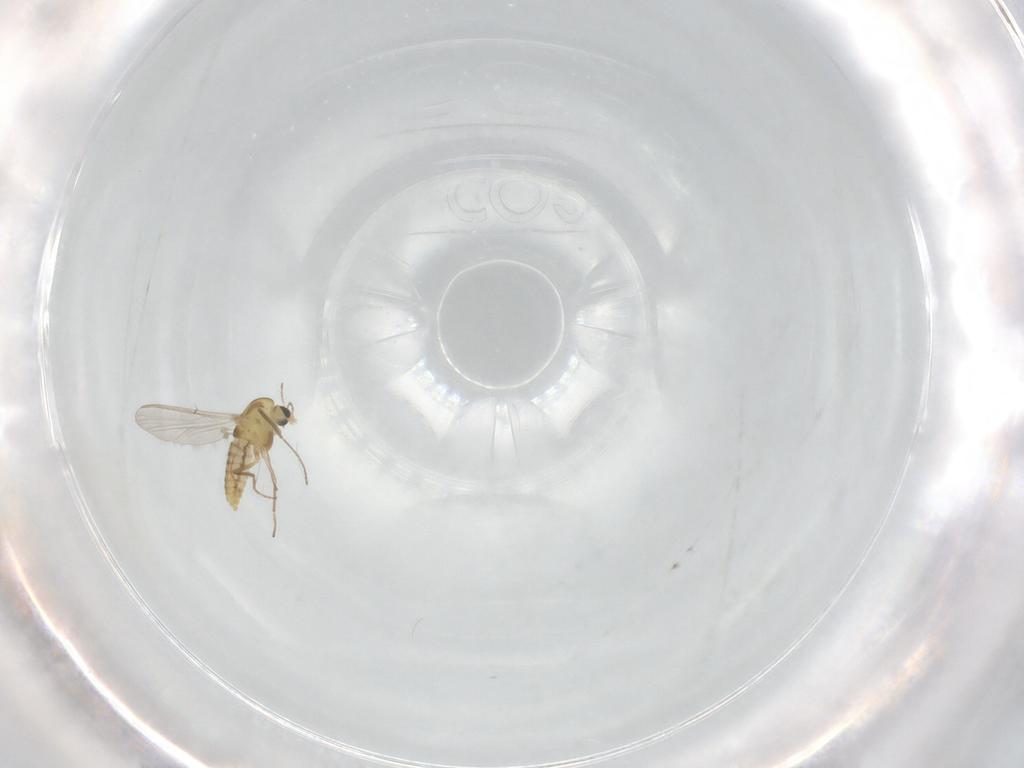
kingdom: Animalia
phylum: Arthropoda
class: Insecta
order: Diptera
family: Chironomidae
